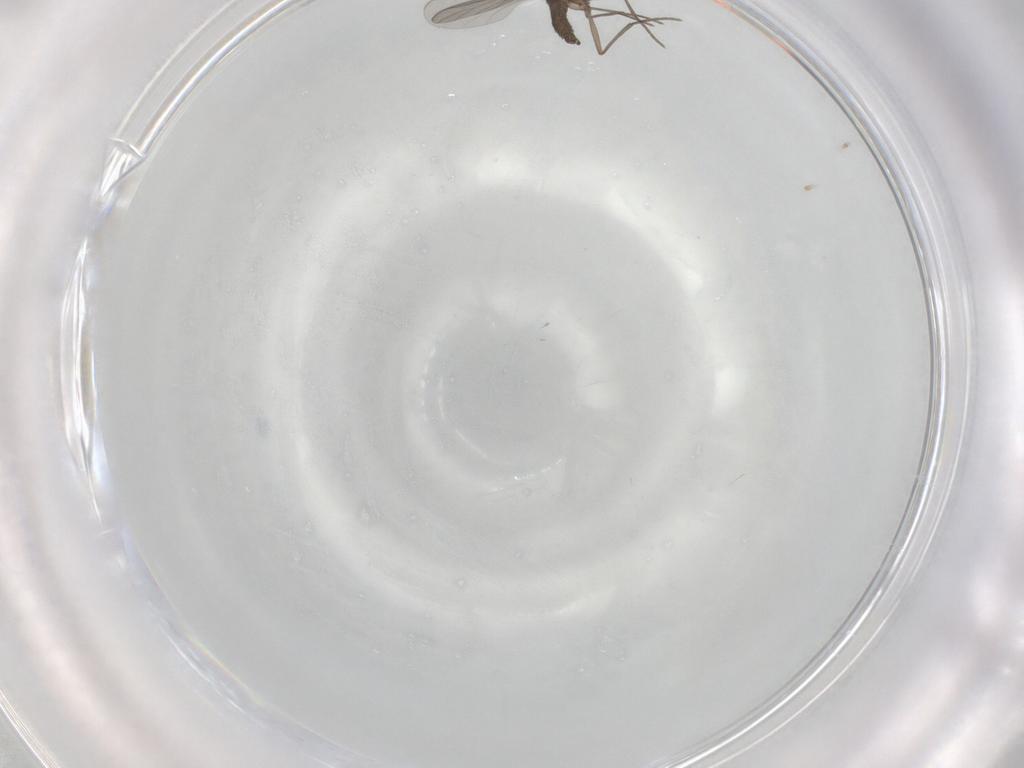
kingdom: Animalia
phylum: Arthropoda
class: Insecta
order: Diptera
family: Sciaridae
